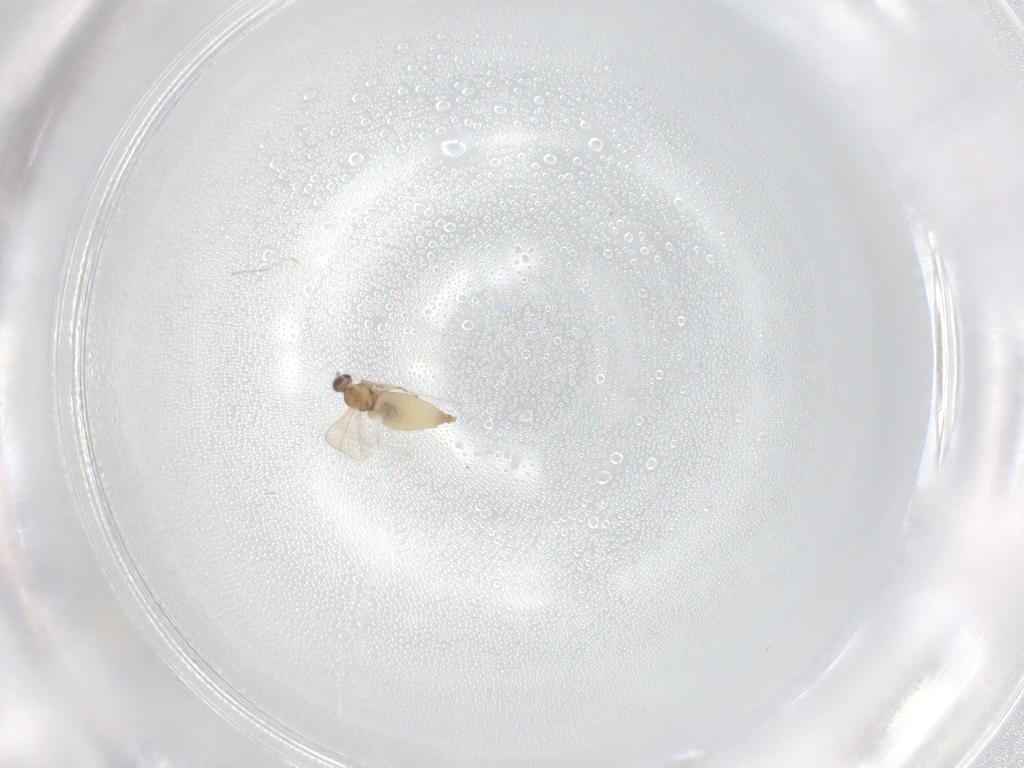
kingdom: Animalia
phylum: Arthropoda
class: Insecta
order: Diptera
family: Cecidomyiidae
